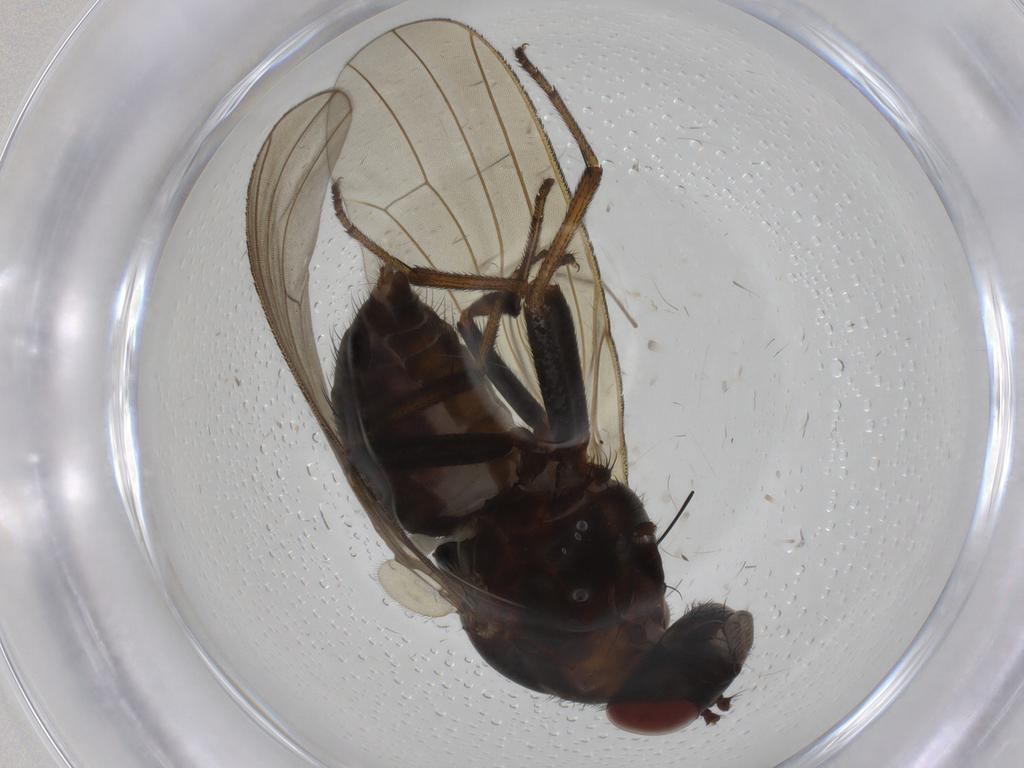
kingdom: Animalia
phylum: Arthropoda
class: Insecta
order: Diptera
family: Chironomidae
